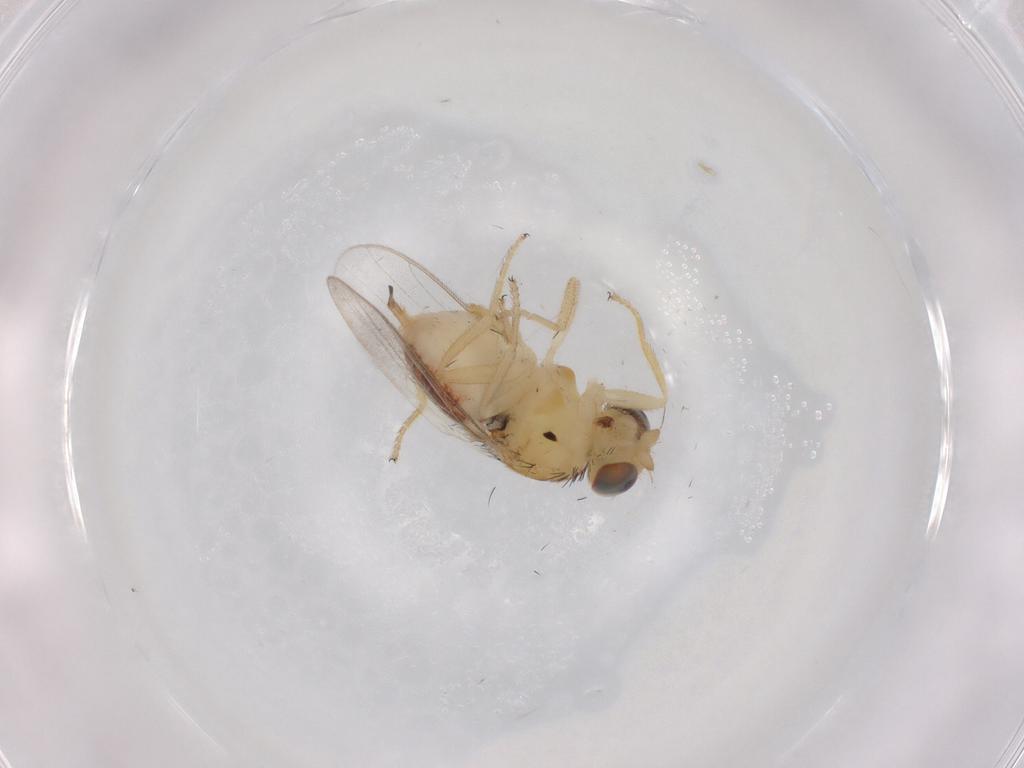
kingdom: Animalia
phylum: Arthropoda
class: Insecta
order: Diptera
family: Chloropidae
